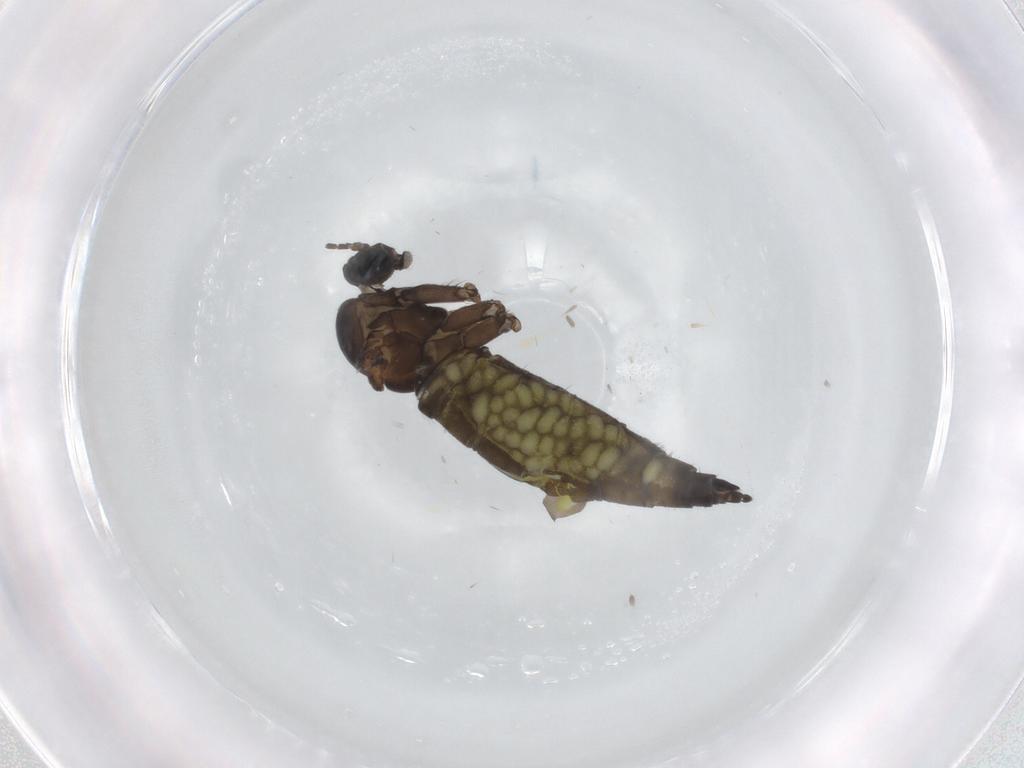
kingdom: Animalia
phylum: Arthropoda
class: Insecta
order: Diptera
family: Sciaridae
